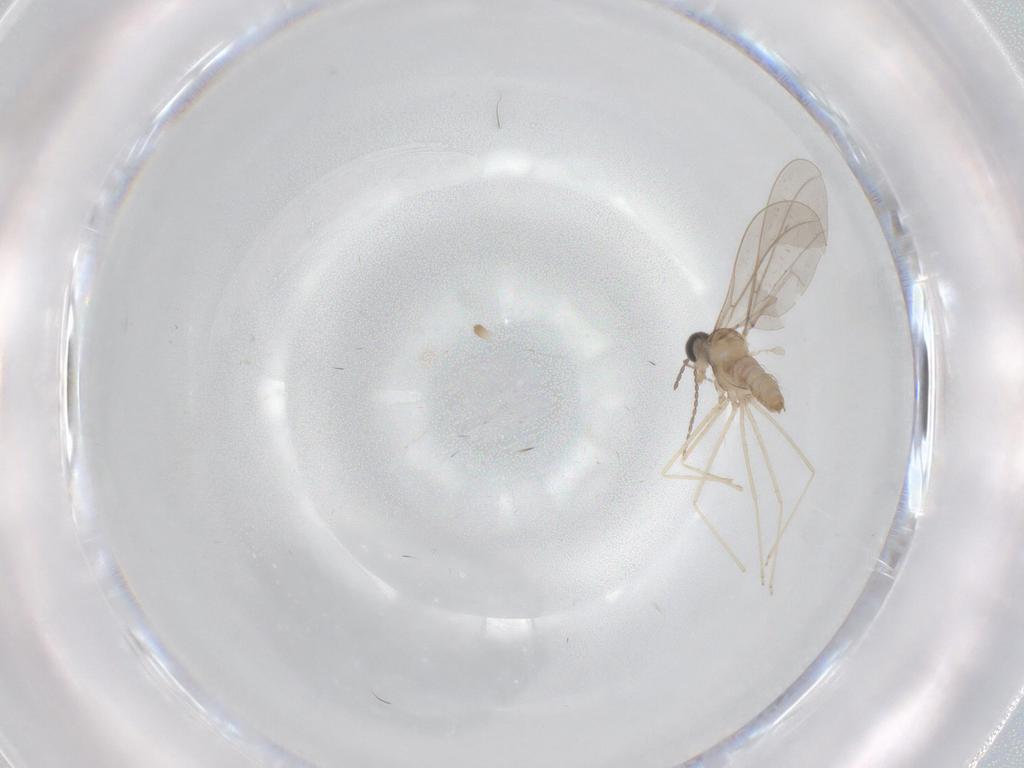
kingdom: Animalia
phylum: Arthropoda
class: Insecta
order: Diptera
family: Cecidomyiidae
